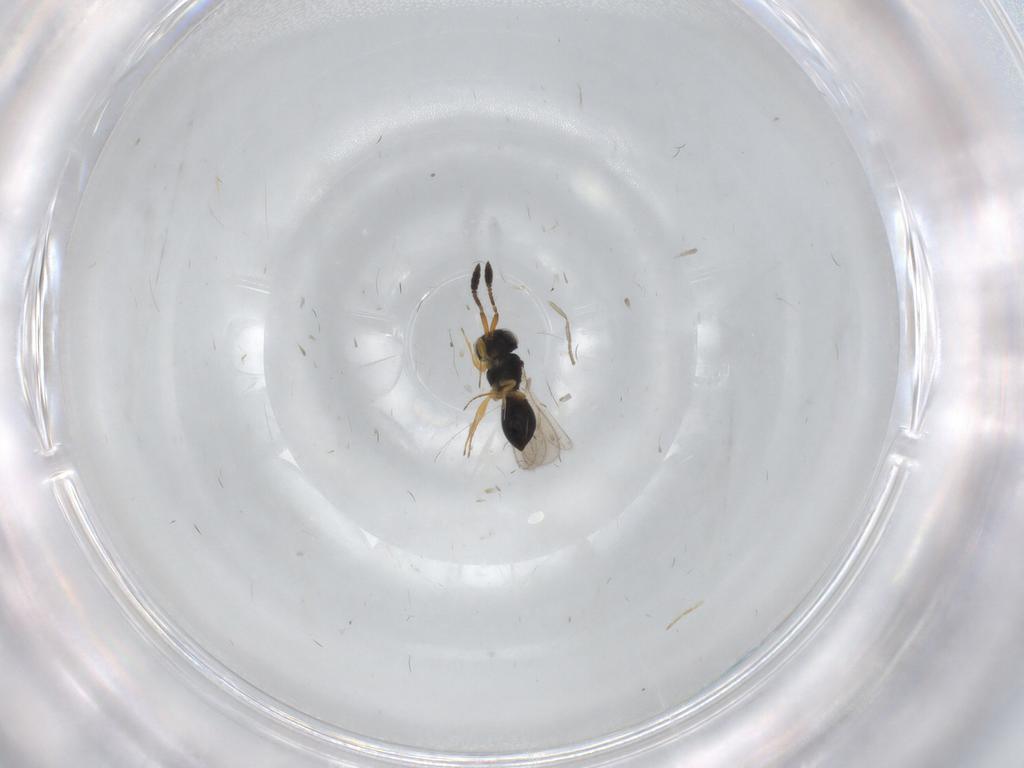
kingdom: Animalia
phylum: Arthropoda
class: Insecta
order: Hymenoptera
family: Scelionidae
